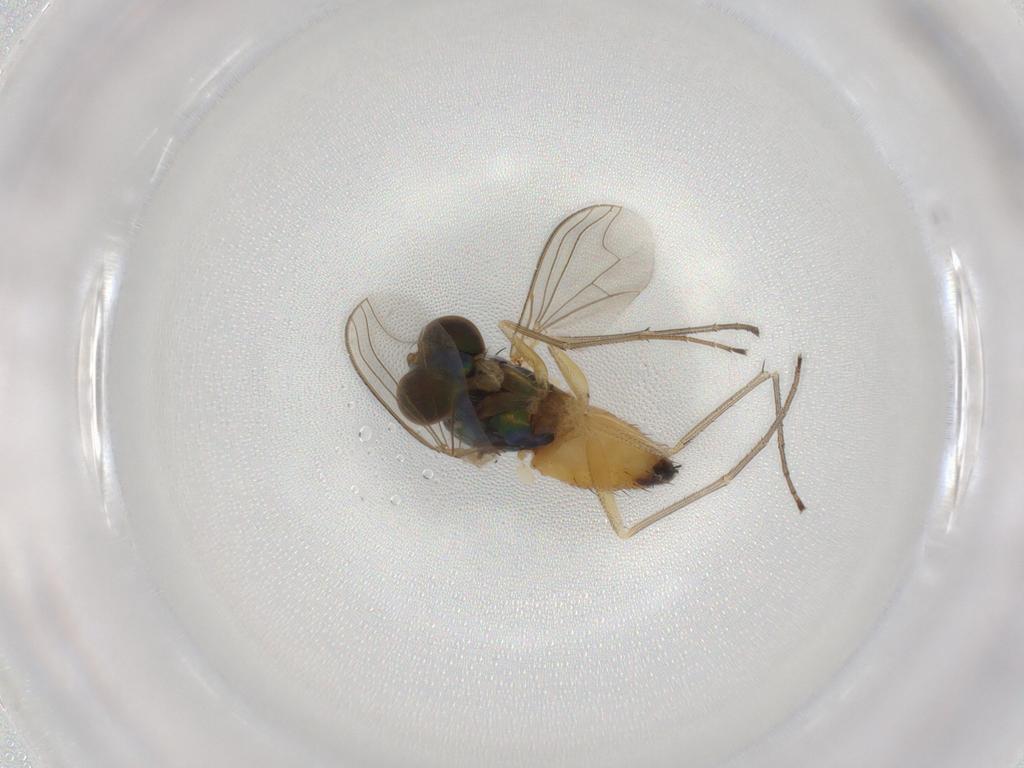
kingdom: Animalia
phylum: Arthropoda
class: Insecta
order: Diptera
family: Dolichopodidae
